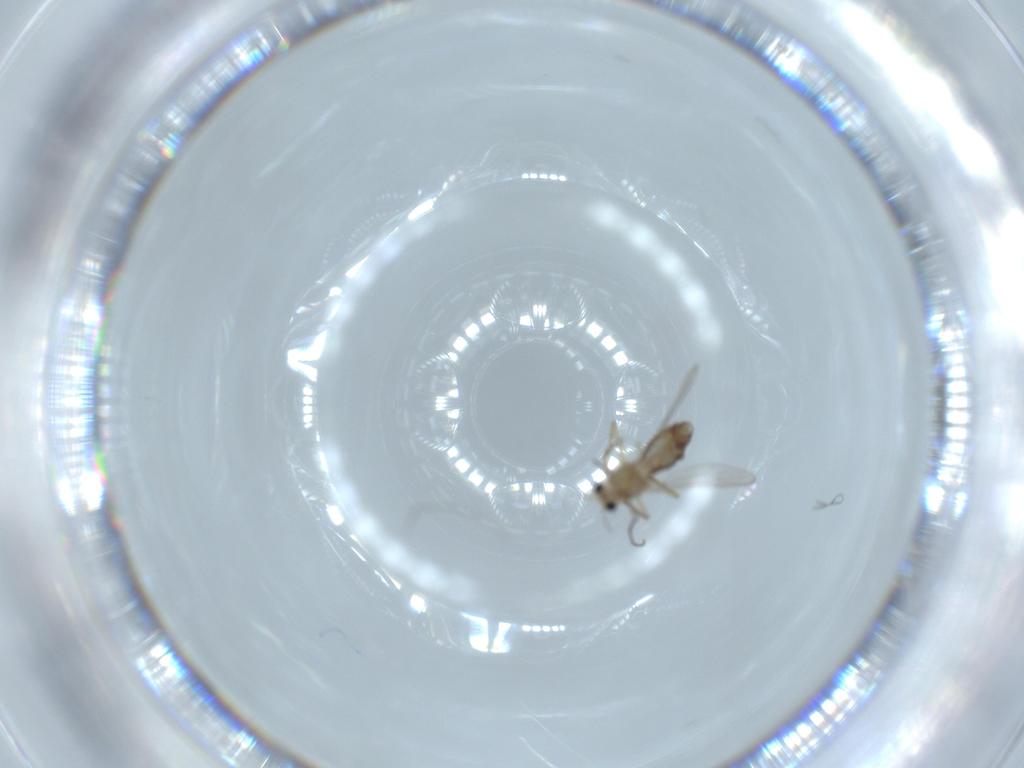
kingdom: Animalia
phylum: Arthropoda
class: Insecta
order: Diptera
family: Chironomidae
